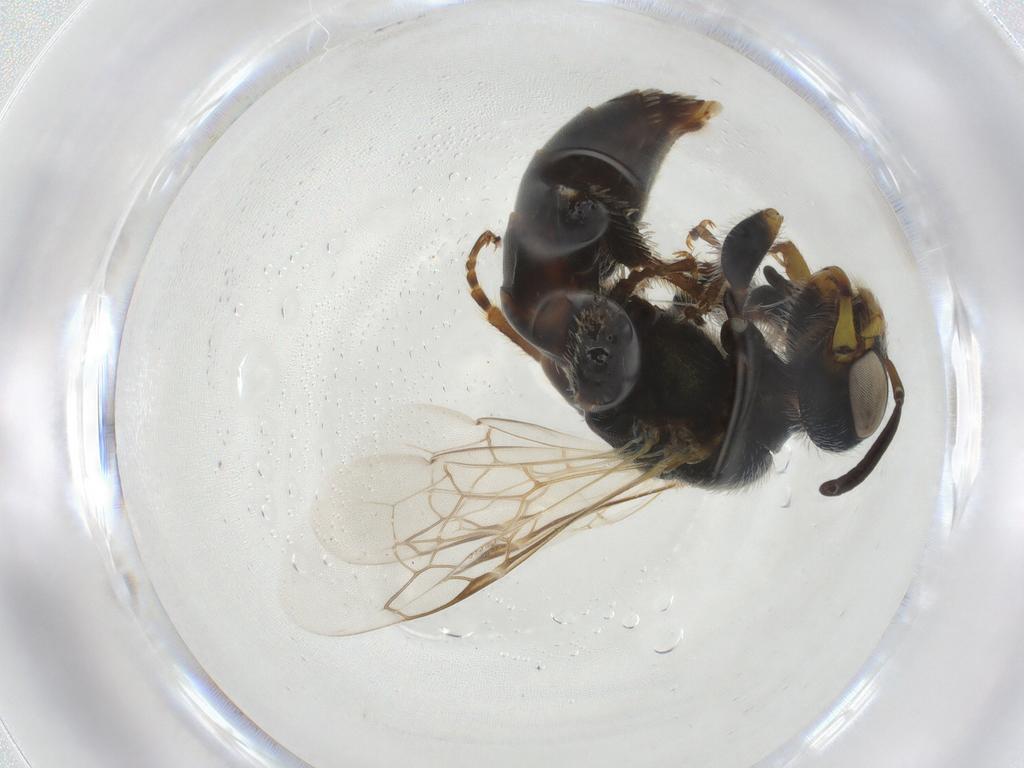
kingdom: Animalia
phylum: Arthropoda
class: Insecta
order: Hymenoptera
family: Andrenidae
